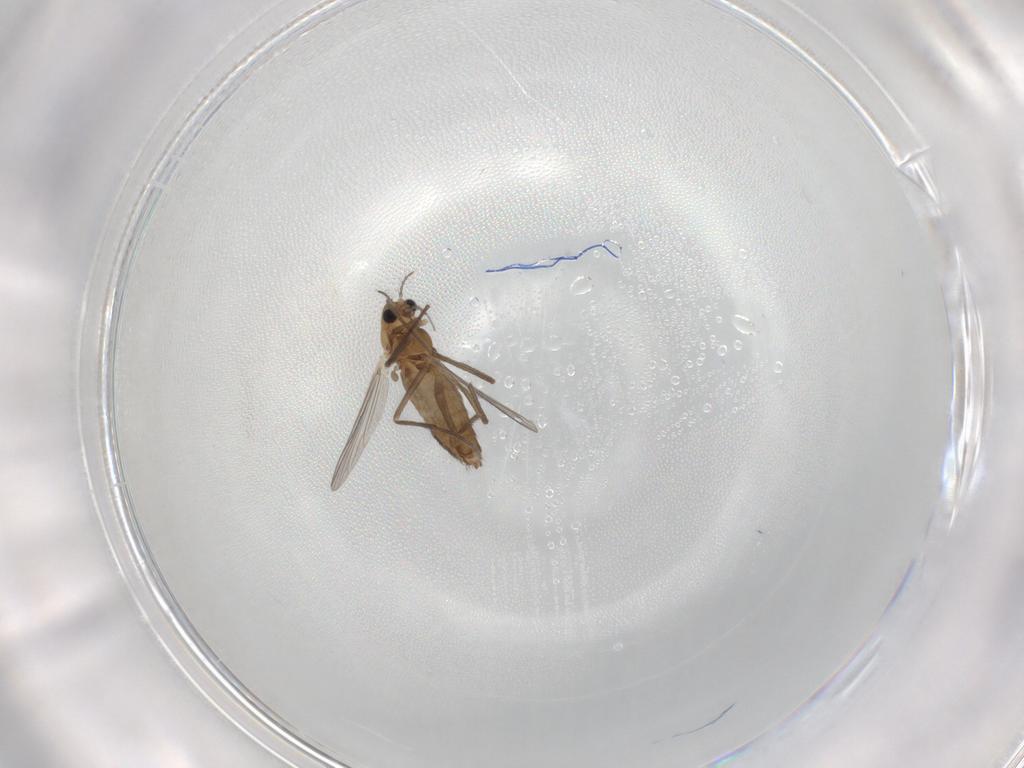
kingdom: Animalia
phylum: Arthropoda
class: Insecta
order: Diptera
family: Chironomidae
